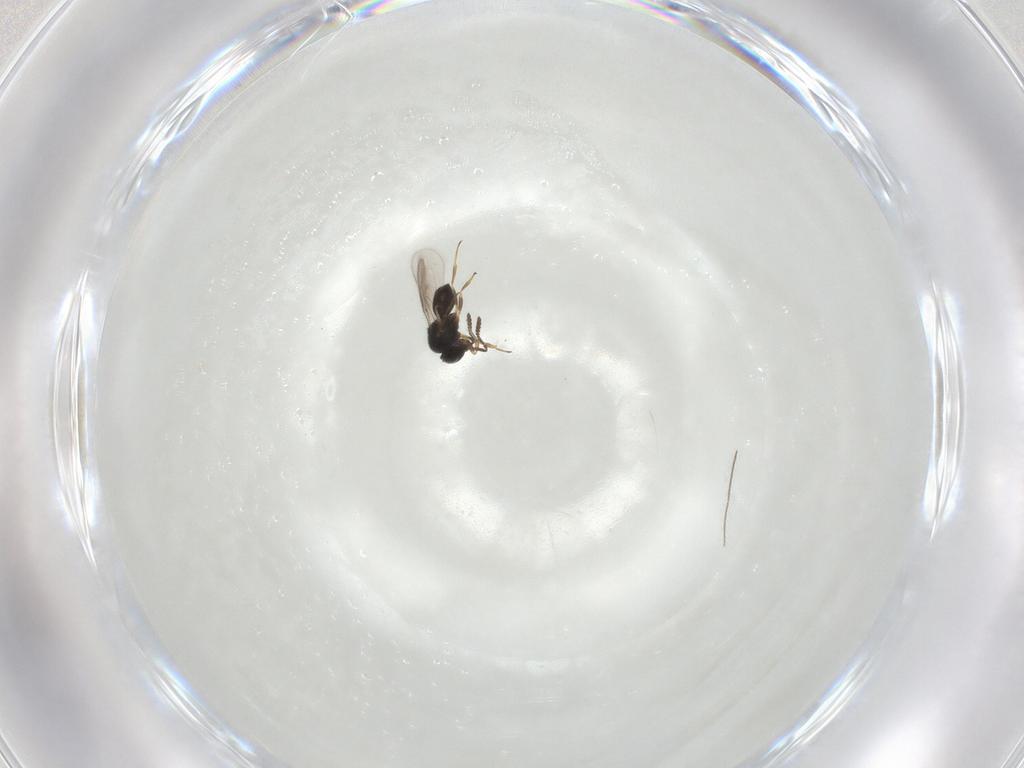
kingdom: Animalia
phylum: Arthropoda
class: Insecta
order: Hymenoptera
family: Scelionidae
